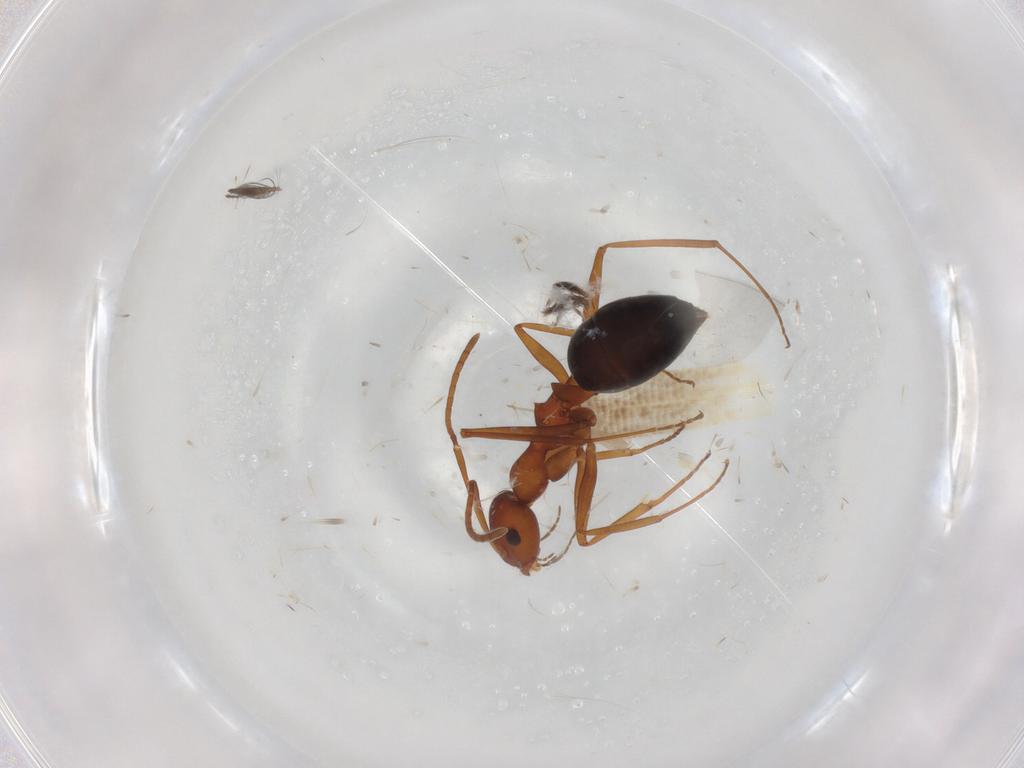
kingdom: Animalia
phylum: Arthropoda
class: Insecta
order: Hymenoptera
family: Formicidae
